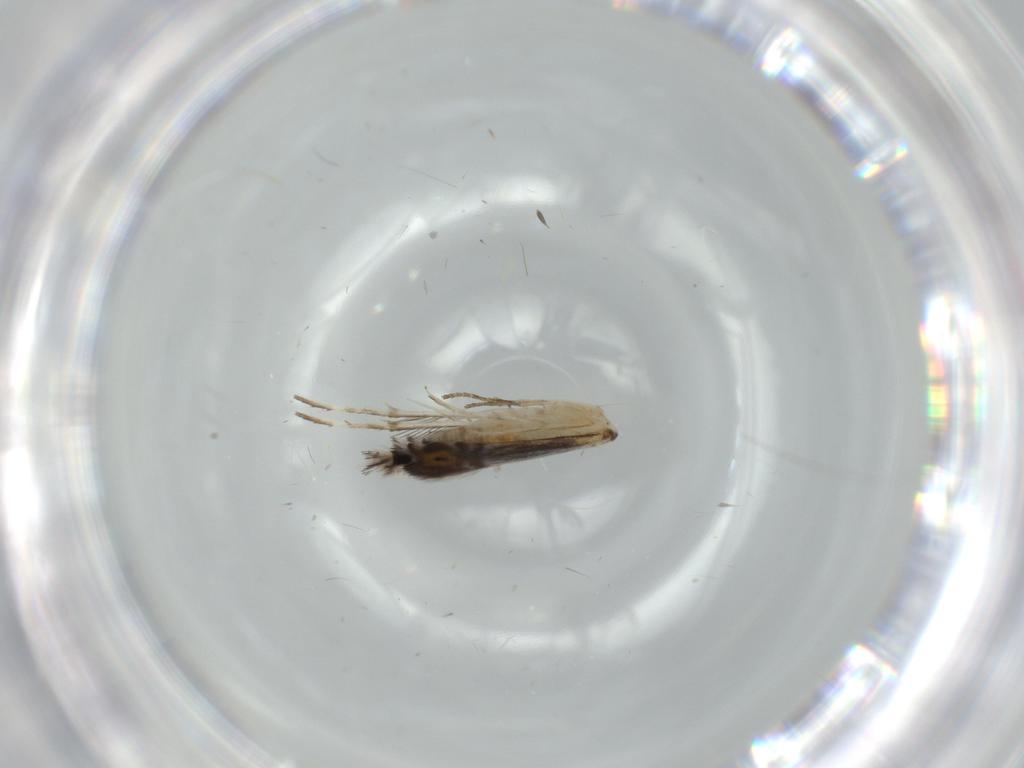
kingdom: Animalia
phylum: Arthropoda
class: Insecta
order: Lepidoptera
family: Gracillariidae
